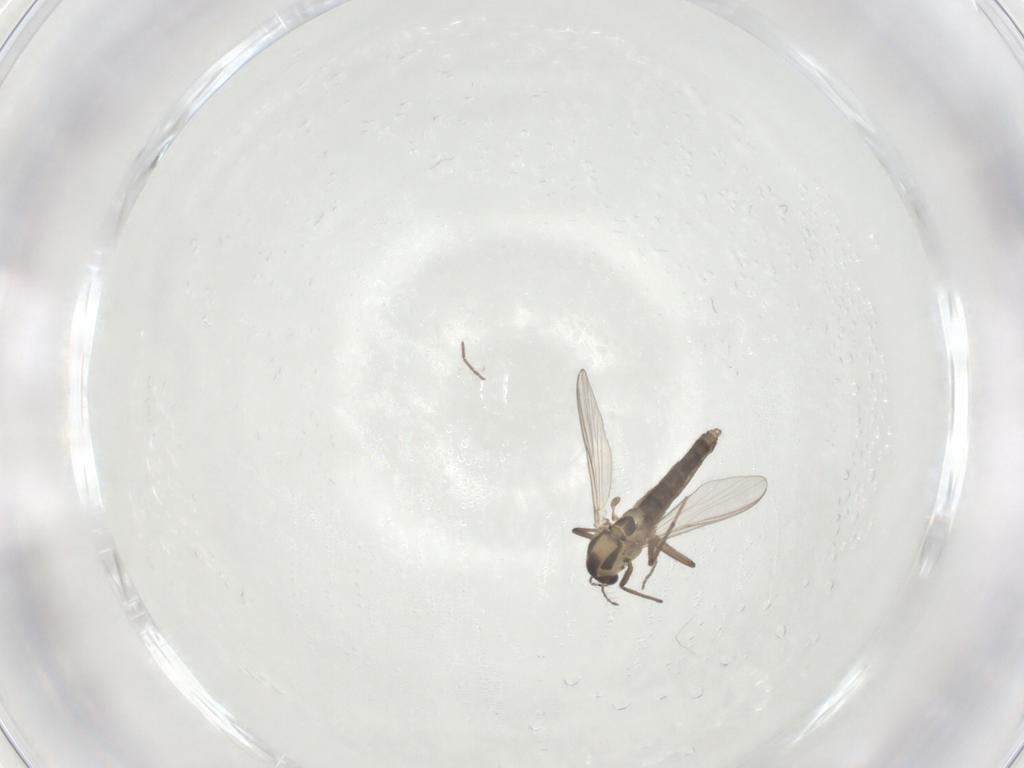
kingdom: Animalia
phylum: Arthropoda
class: Insecta
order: Diptera
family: Chironomidae
